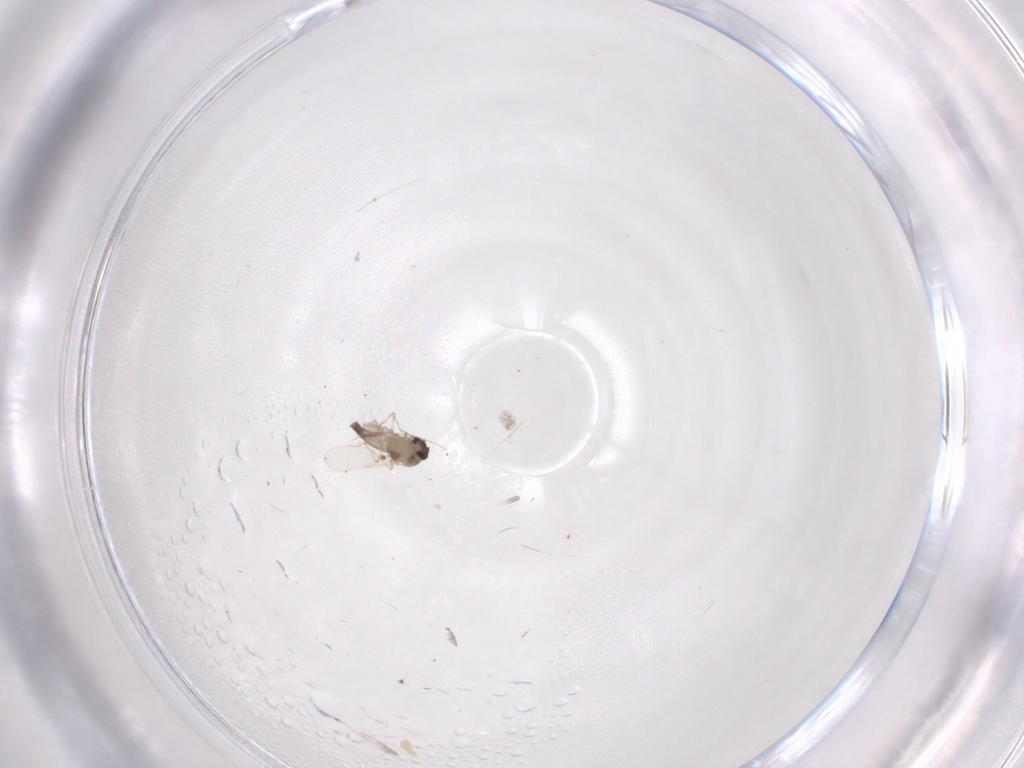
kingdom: Animalia
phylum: Arthropoda
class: Insecta
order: Diptera
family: Ceratopogonidae
